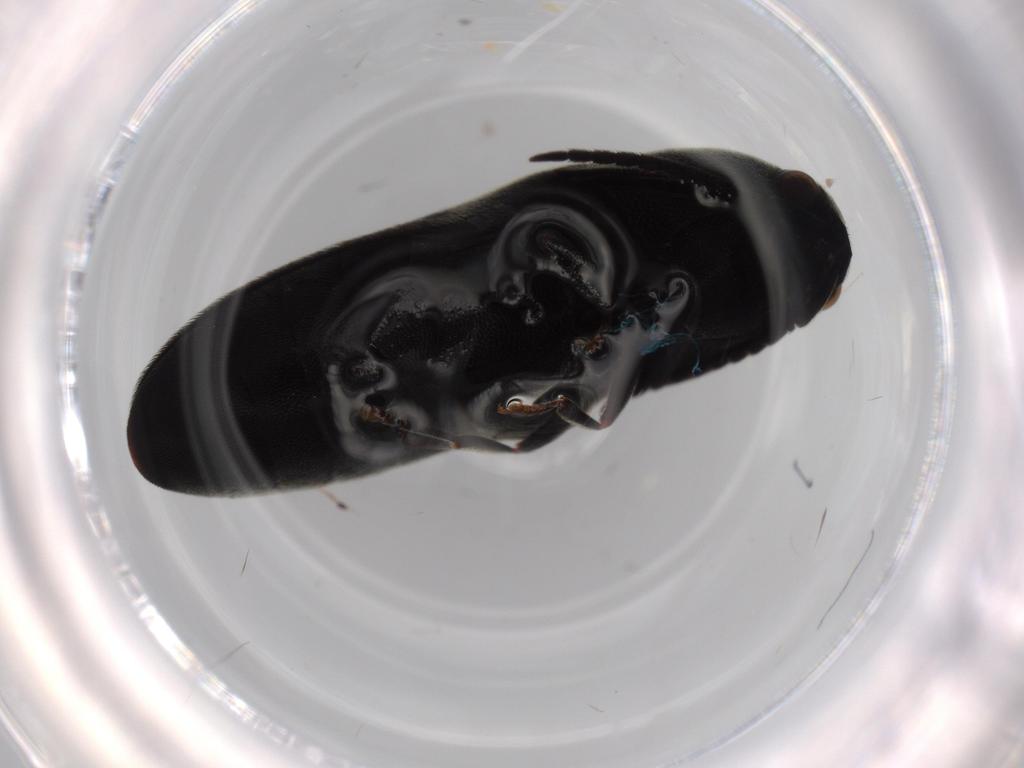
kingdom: Animalia
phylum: Arthropoda
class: Insecta
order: Coleoptera
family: Eucnemidae
